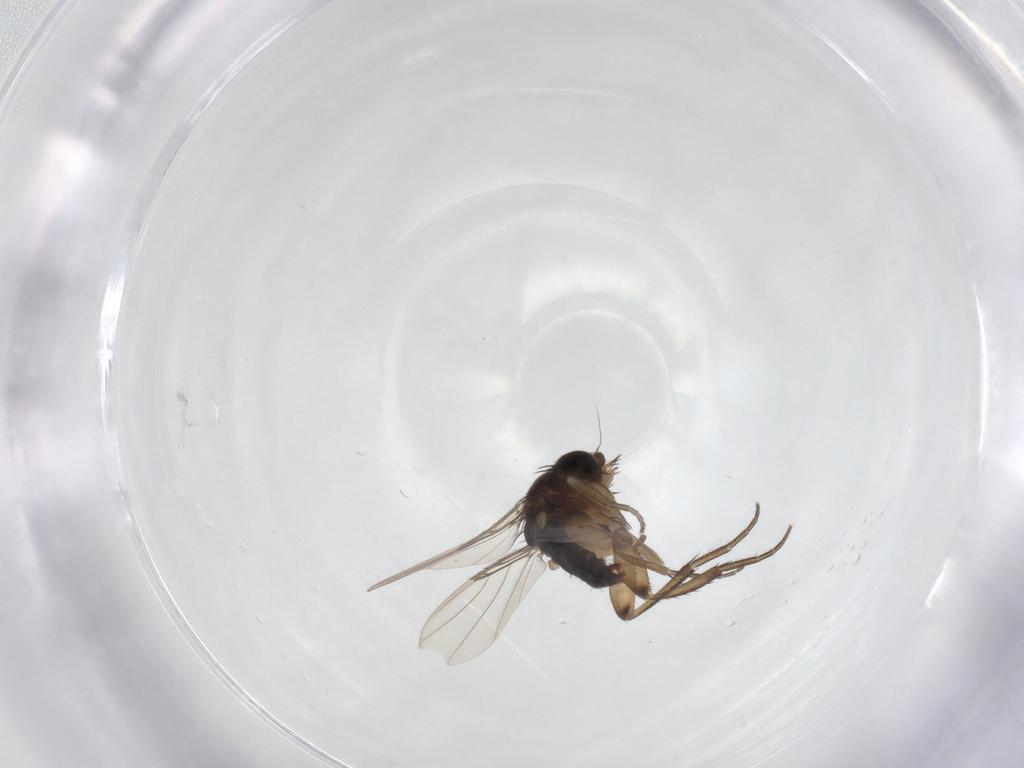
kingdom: Animalia
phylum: Arthropoda
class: Insecta
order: Diptera
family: Phoridae
